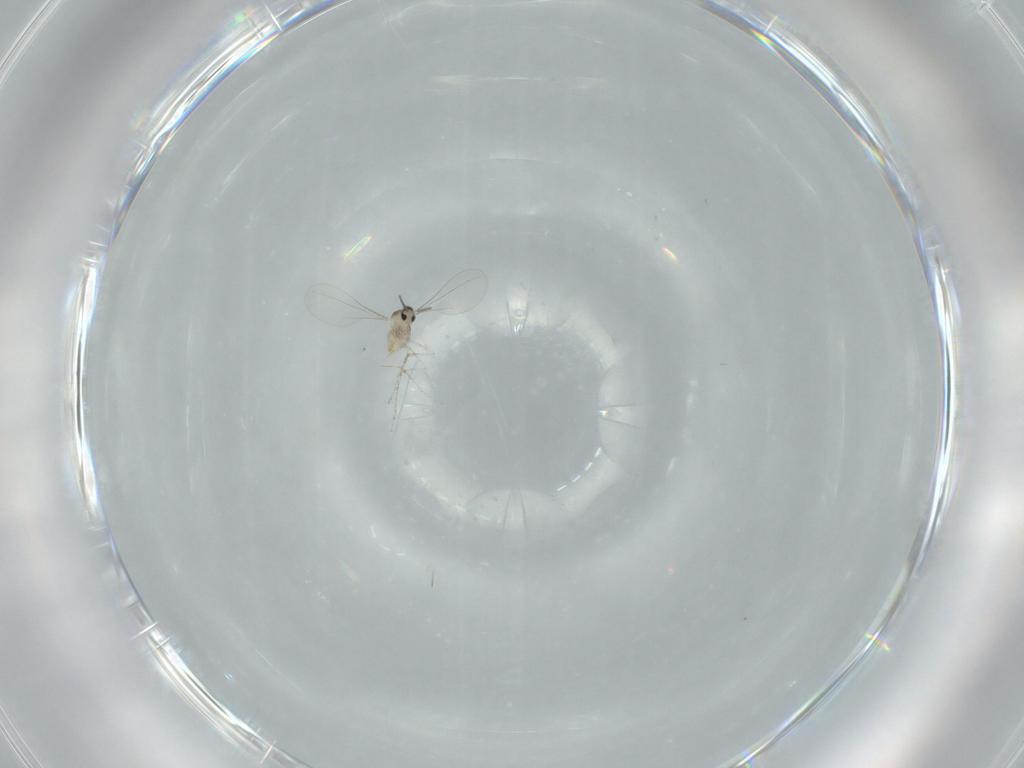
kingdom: Animalia
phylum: Arthropoda
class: Insecta
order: Diptera
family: Cecidomyiidae
